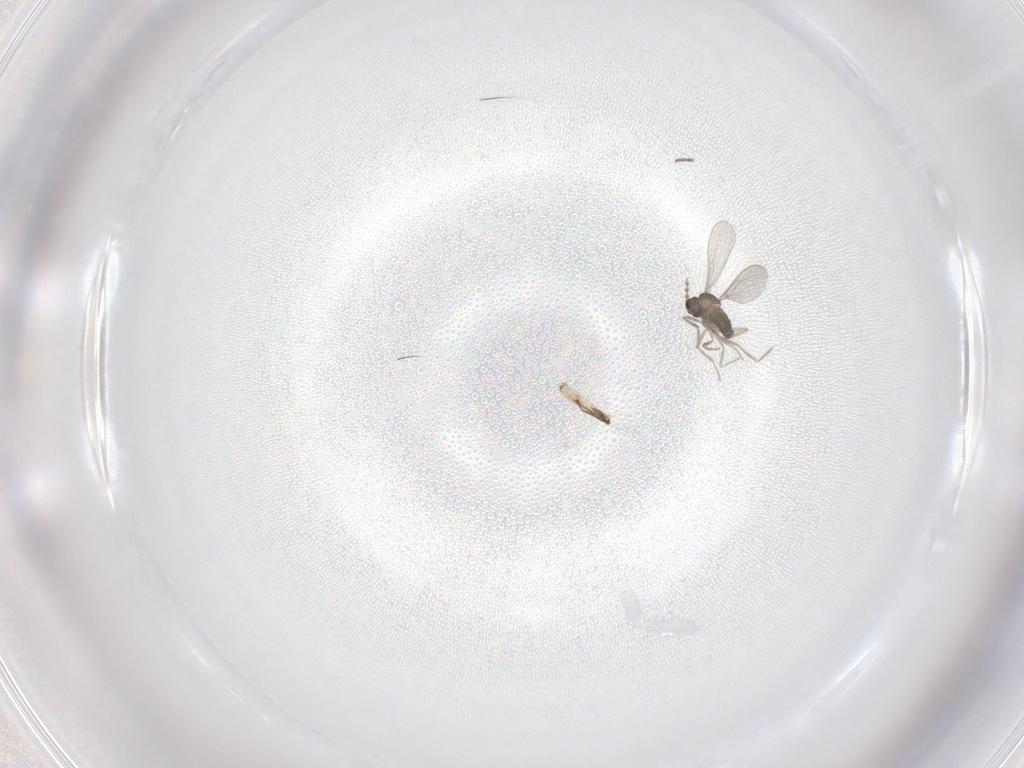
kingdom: Animalia
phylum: Arthropoda
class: Insecta
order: Diptera
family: Cecidomyiidae
